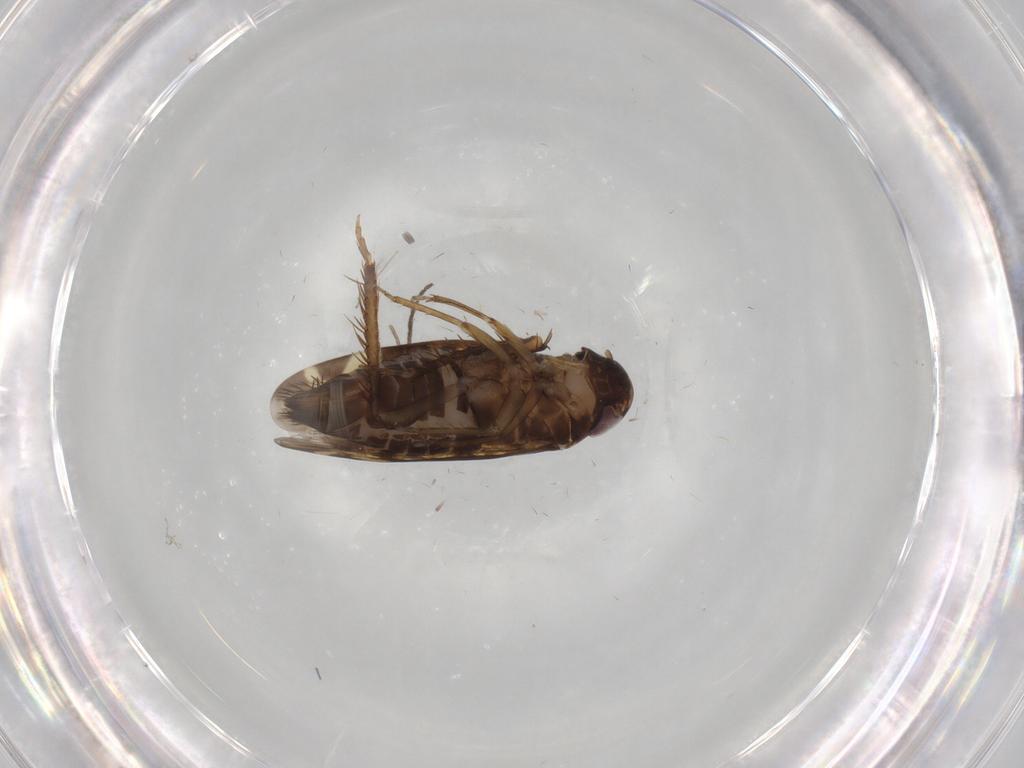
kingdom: Animalia
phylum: Arthropoda
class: Insecta
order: Hemiptera
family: Cicadellidae
